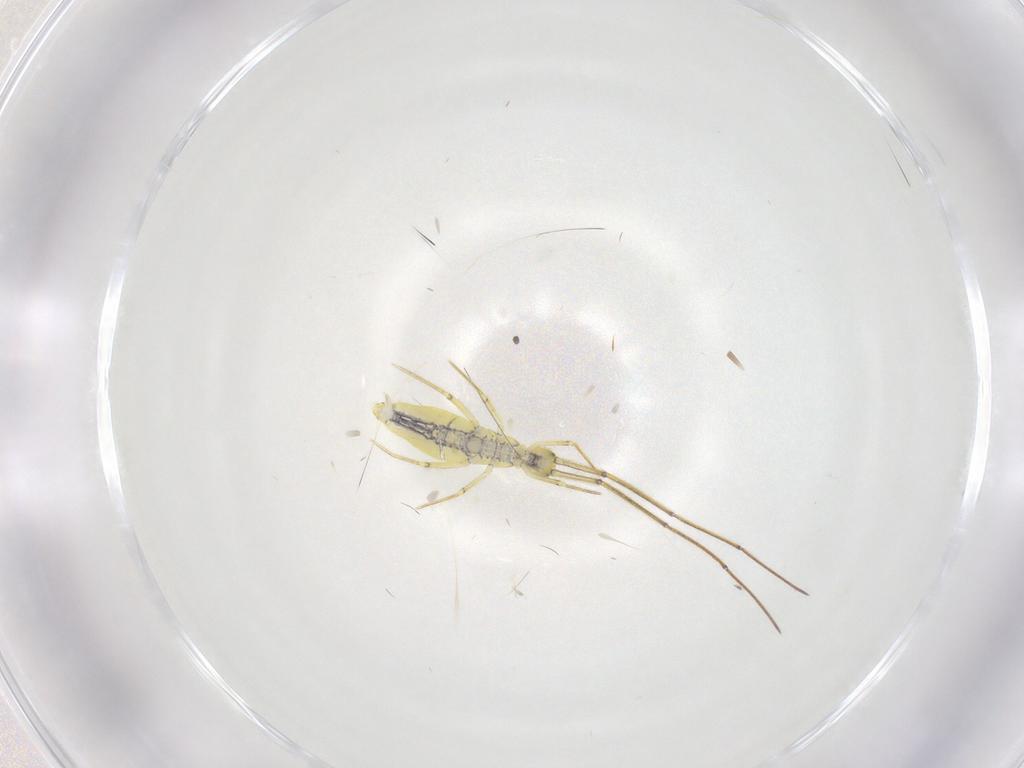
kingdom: Animalia
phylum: Arthropoda
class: Collembola
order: Entomobryomorpha
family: Entomobryidae
